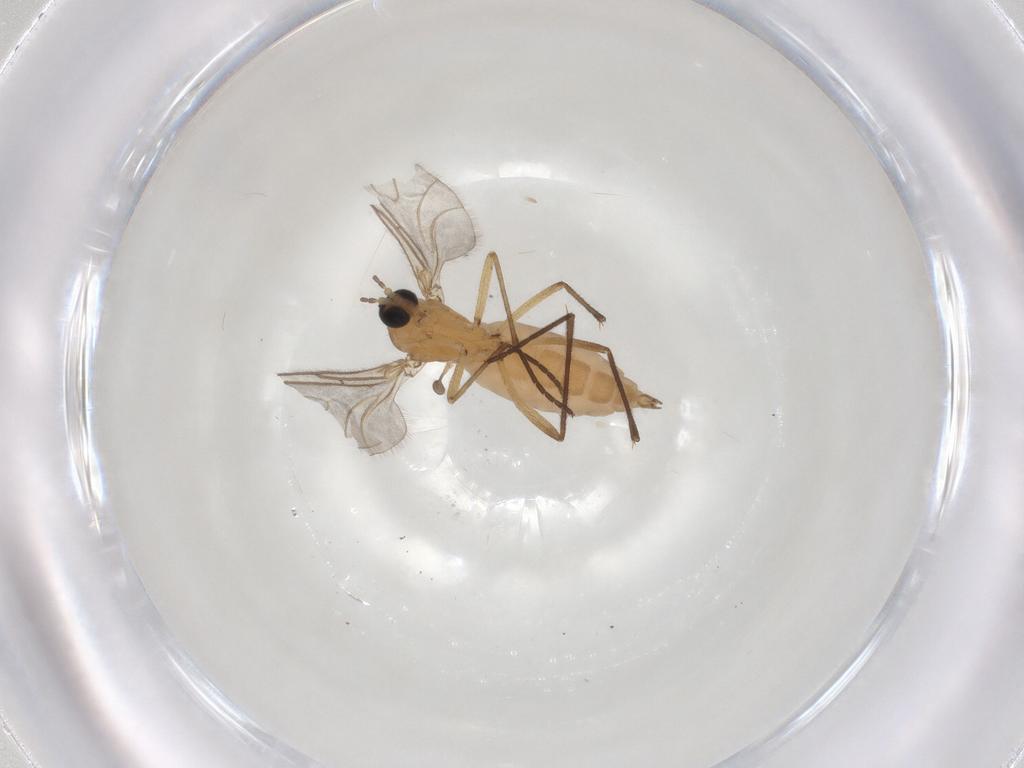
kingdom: Animalia
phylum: Arthropoda
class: Insecta
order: Diptera
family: Sciaridae
